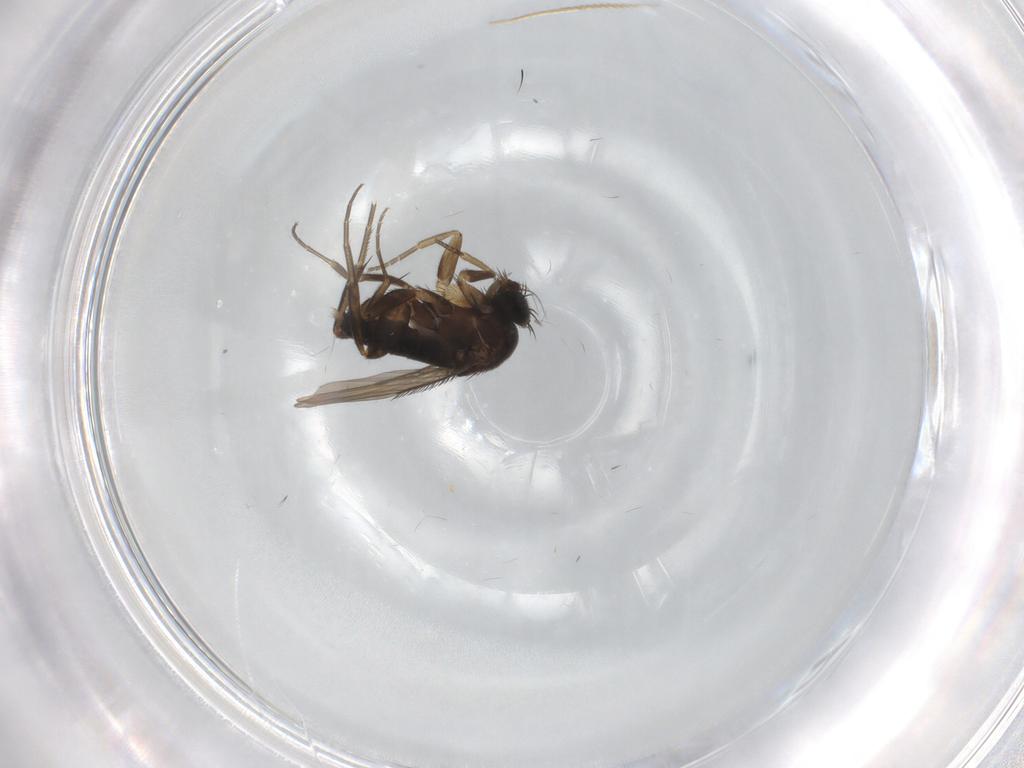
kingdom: Animalia
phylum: Arthropoda
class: Insecta
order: Diptera
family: Phoridae
